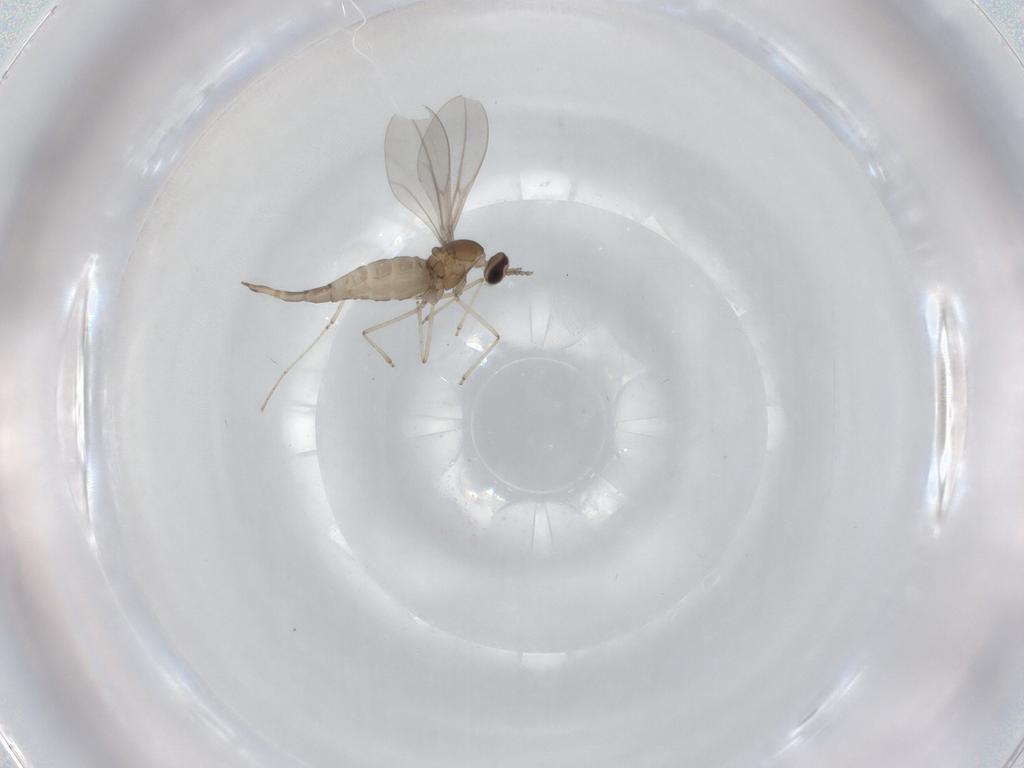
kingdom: Animalia
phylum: Arthropoda
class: Insecta
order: Diptera
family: Cecidomyiidae
